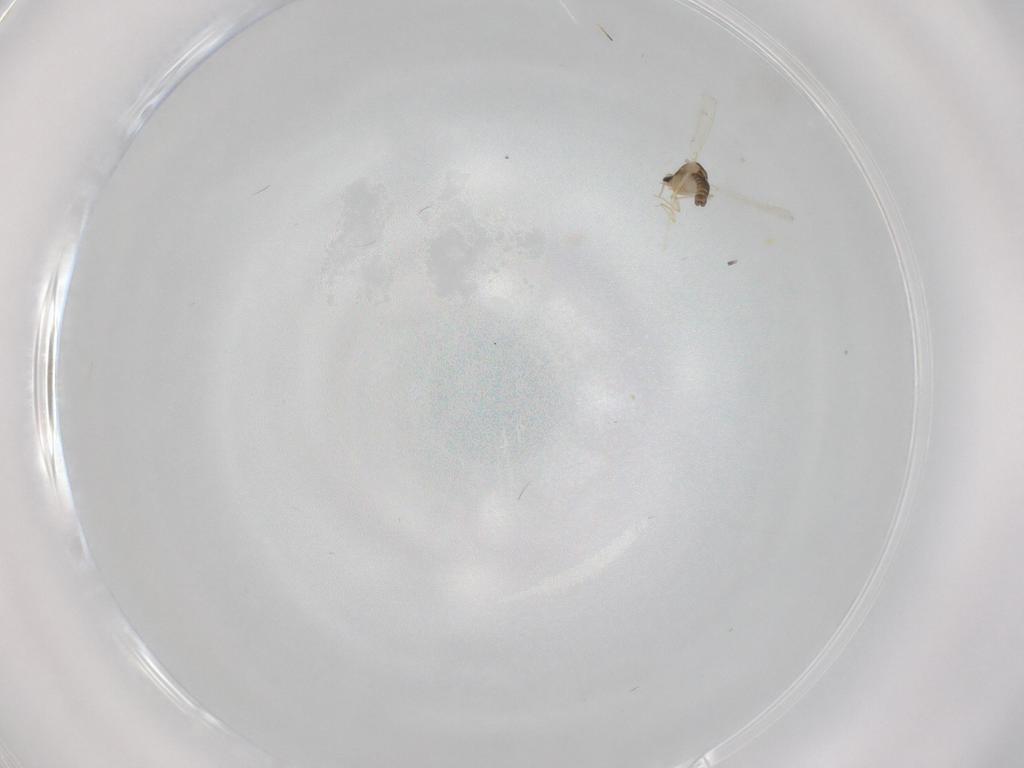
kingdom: Animalia
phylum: Arthropoda
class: Insecta
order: Diptera
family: Chironomidae
